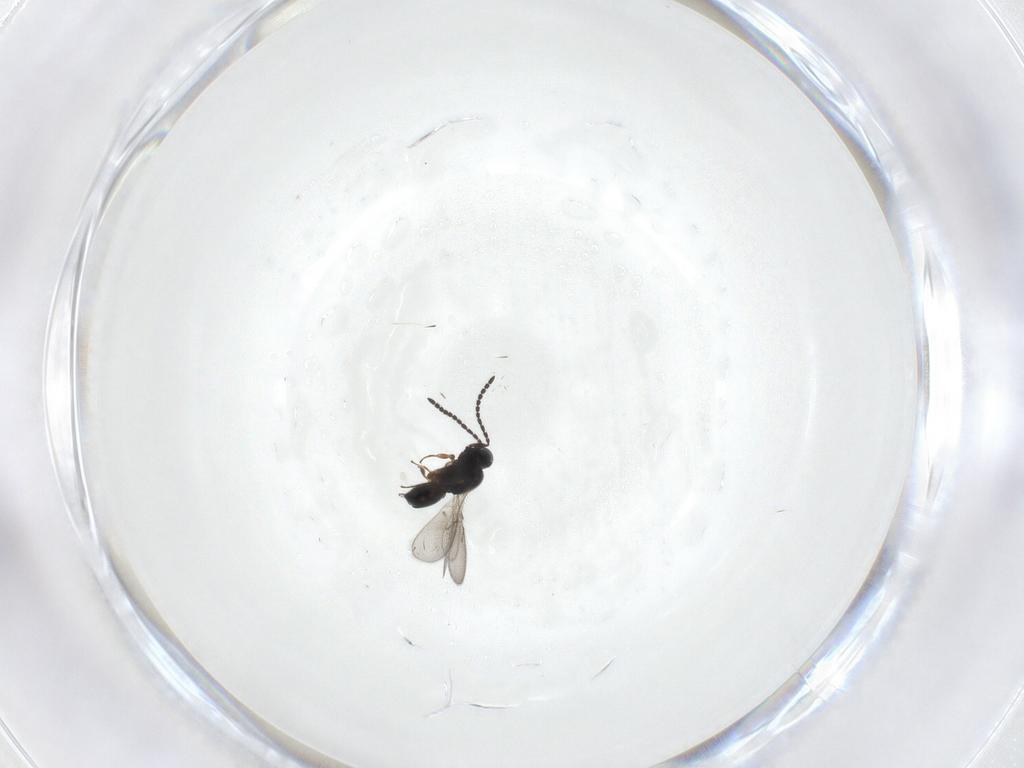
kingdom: Animalia
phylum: Arthropoda
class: Insecta
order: Hymenoptera
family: Scelionidae
